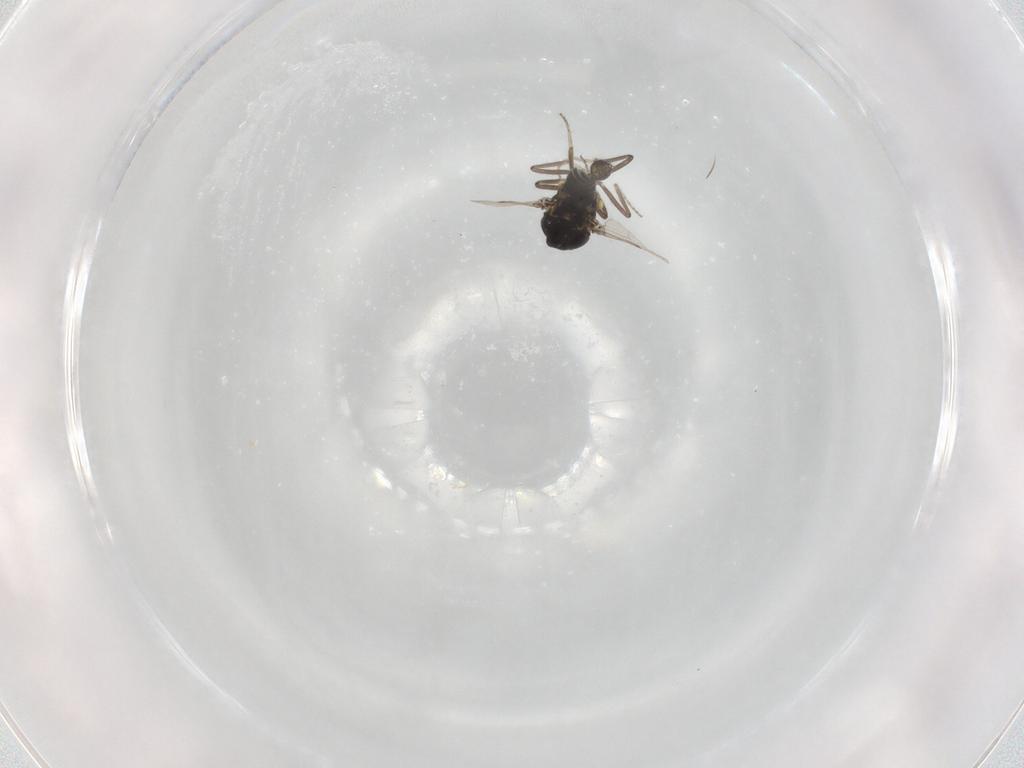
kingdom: Animalia
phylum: Arthropoda
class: Insecta
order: Diptera
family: Ceratopogonidae
